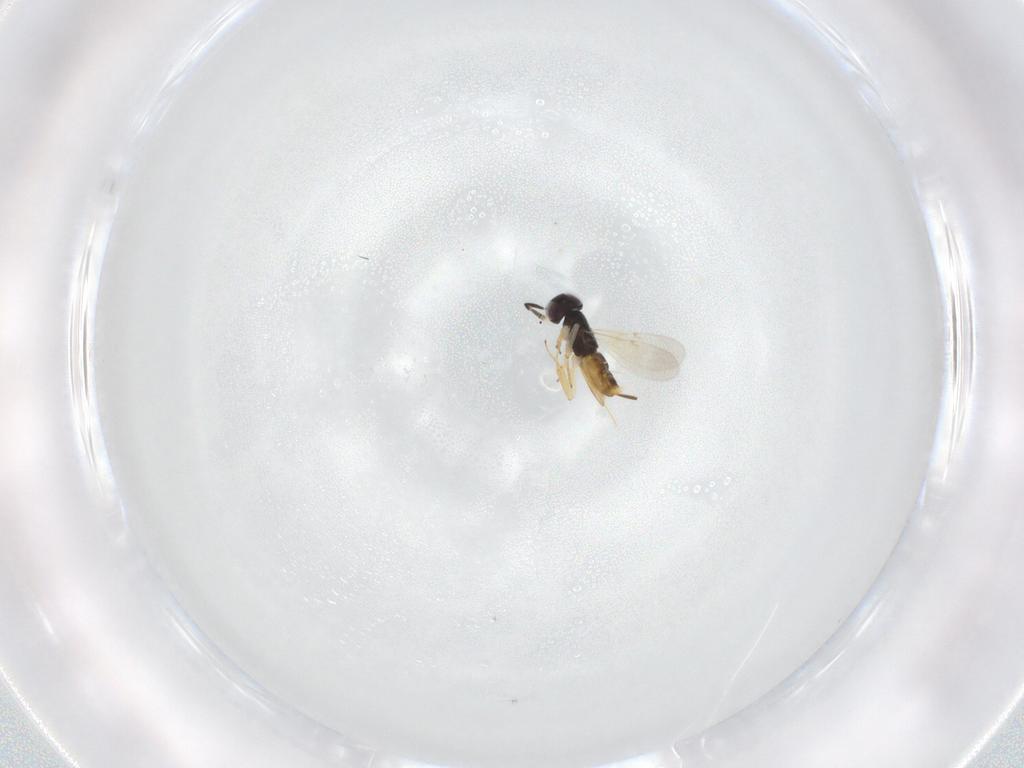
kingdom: Animalia
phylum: Arthropoda
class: Insecta
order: Hymenoptera
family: Encyrtidae
